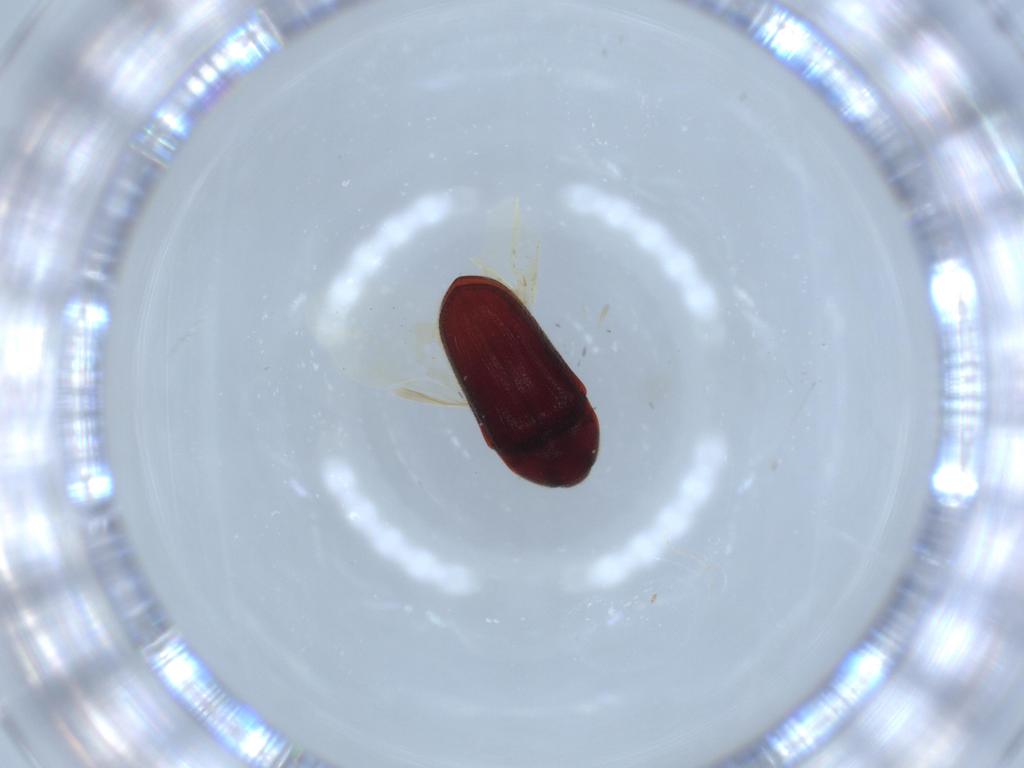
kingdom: Animalia
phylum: Arthropoda
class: Insecta
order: Coleoptera
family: Throscidae
